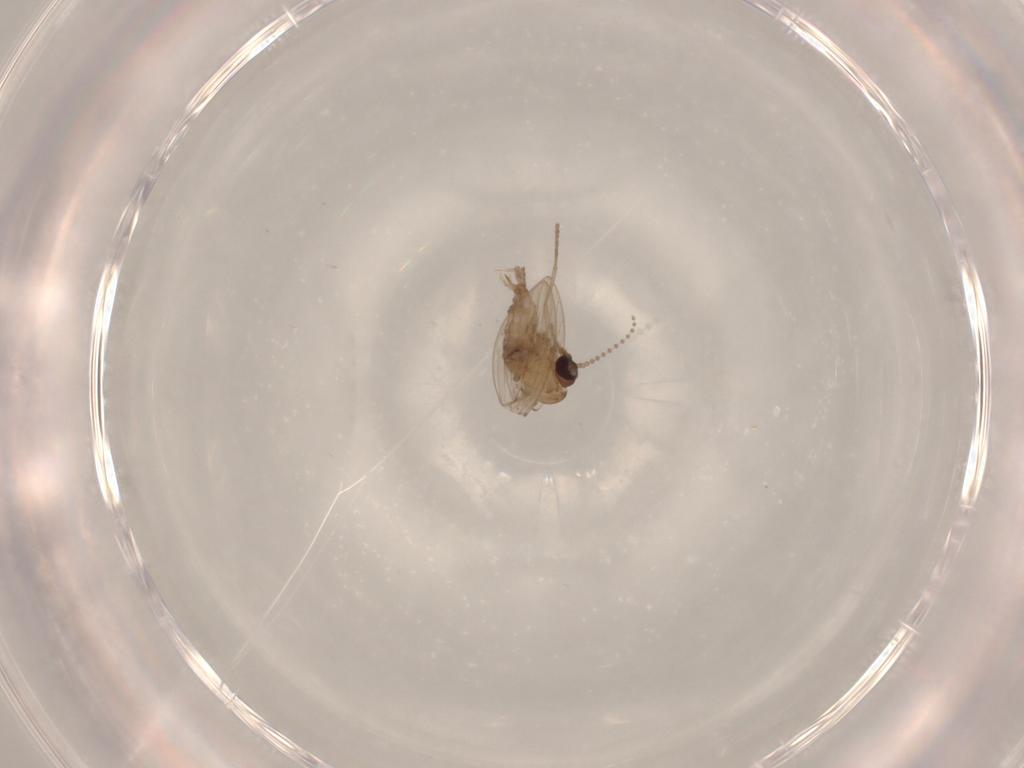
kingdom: Animalia
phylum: Arthropoda
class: Insecta
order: Diptera
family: Psychodidae
